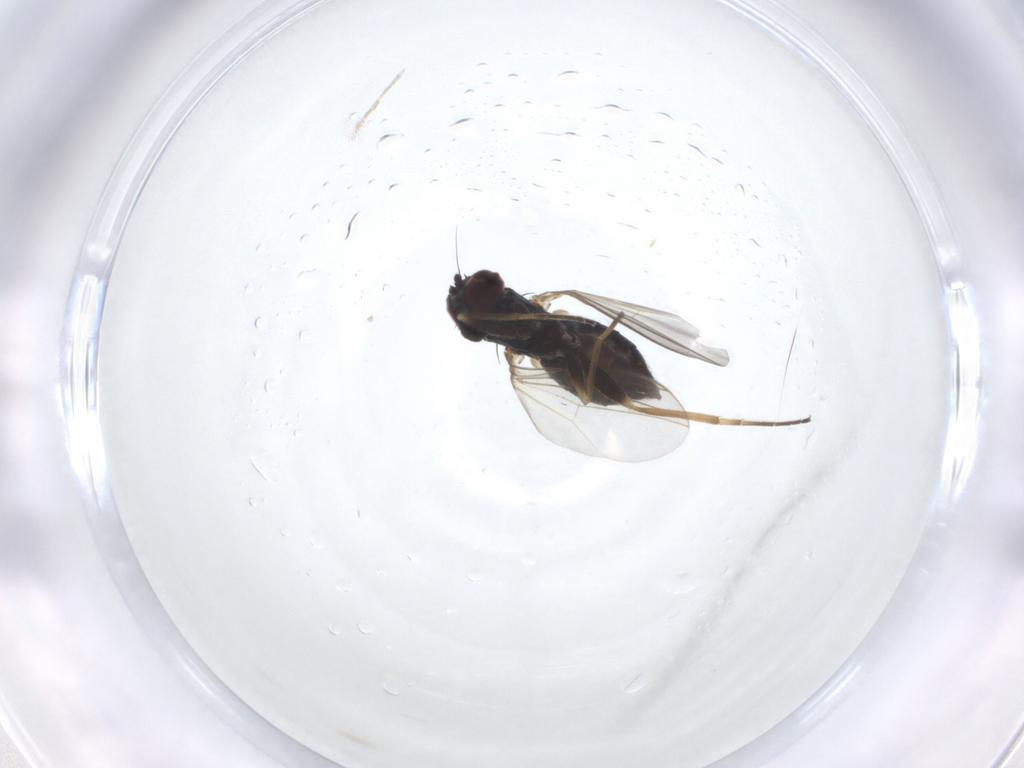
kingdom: Animalia
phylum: Arthropoda
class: Insecta
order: Diptera
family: Dolichopodidae
